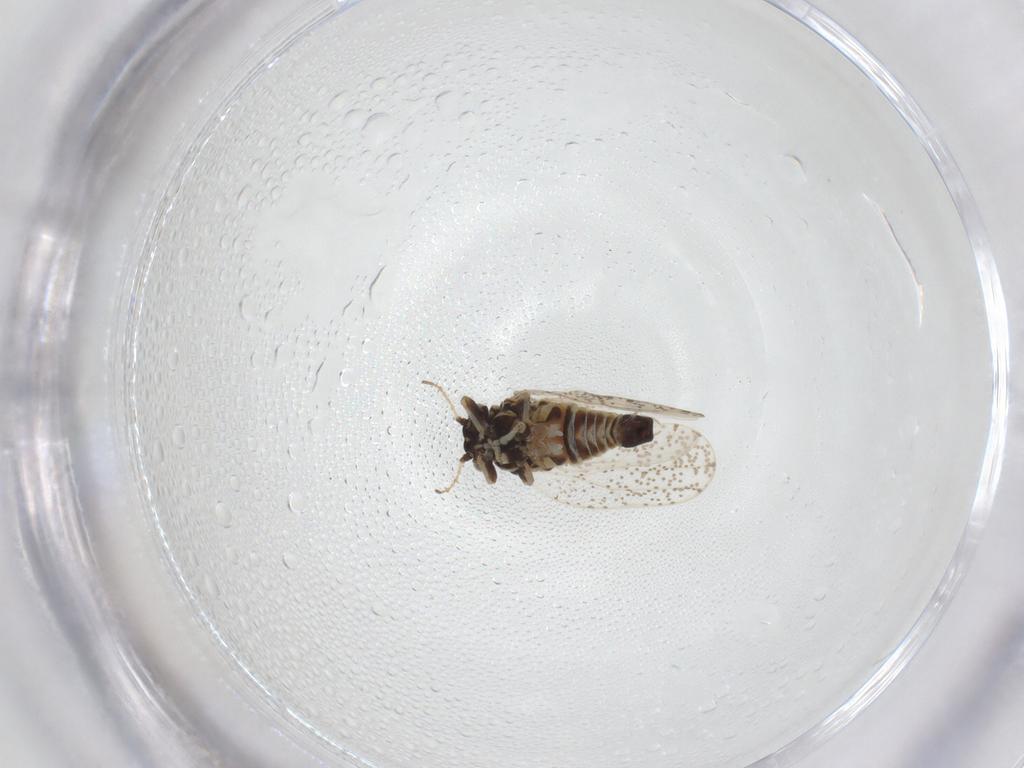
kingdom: Animalia
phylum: Arthropoda
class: Insecta
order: Hemiptera
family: Aphalaridae
